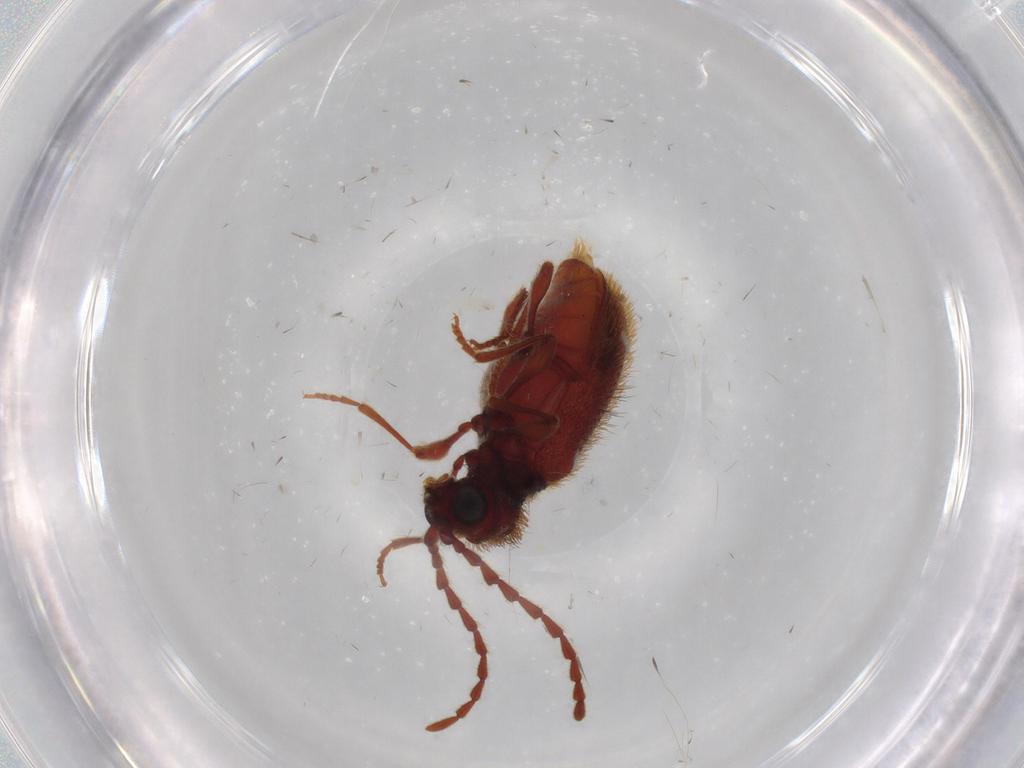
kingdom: Animalia
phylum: Arthropoda
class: Insecta
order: Coleoptera
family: Ptinidae
